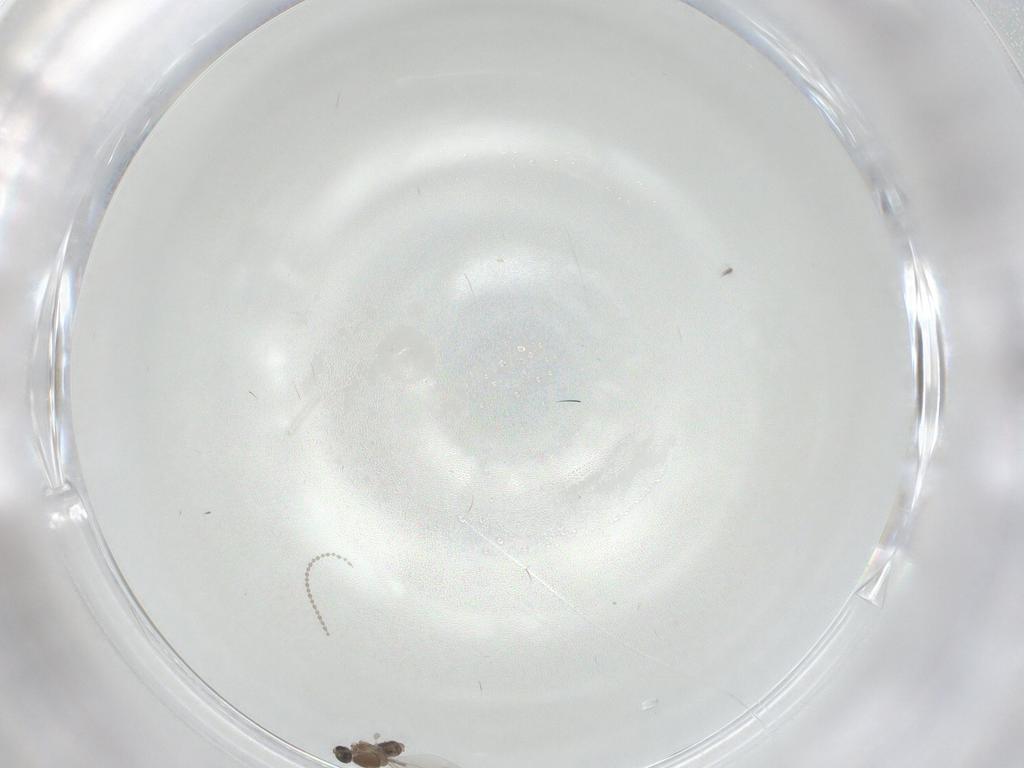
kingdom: Animalia
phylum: Arthropoda
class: Insecta
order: Diptera
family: Cecidomyiidae
